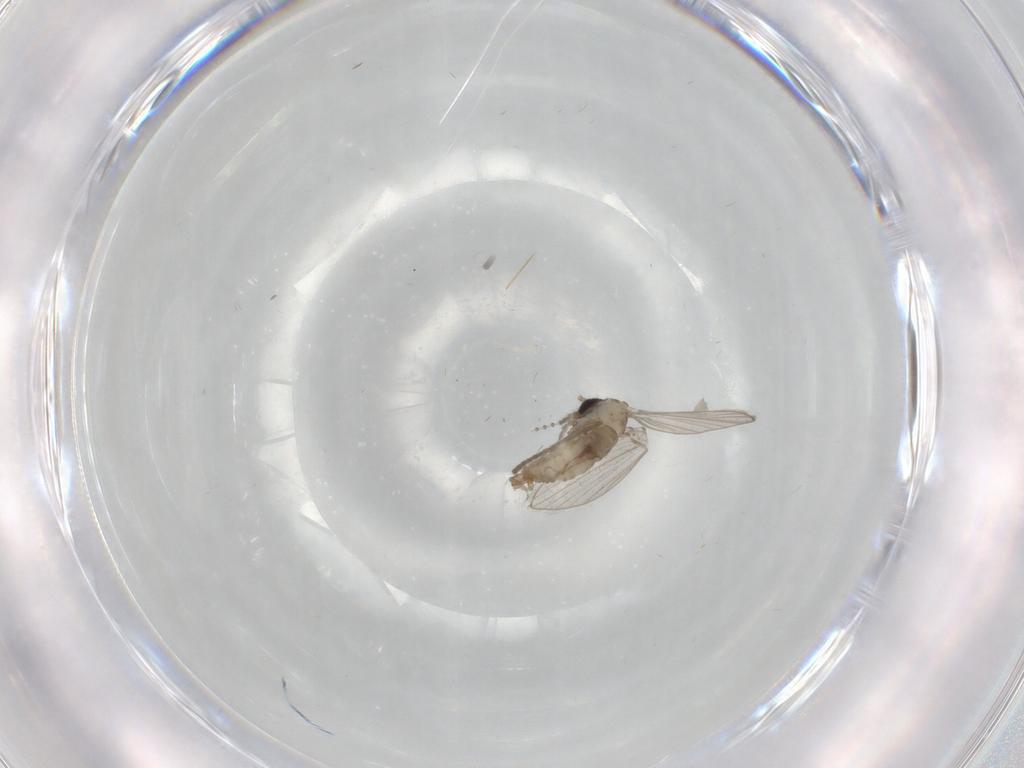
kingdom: Animalia
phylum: Arthropoda
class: Insecta
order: Diptera
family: Psychodidae
